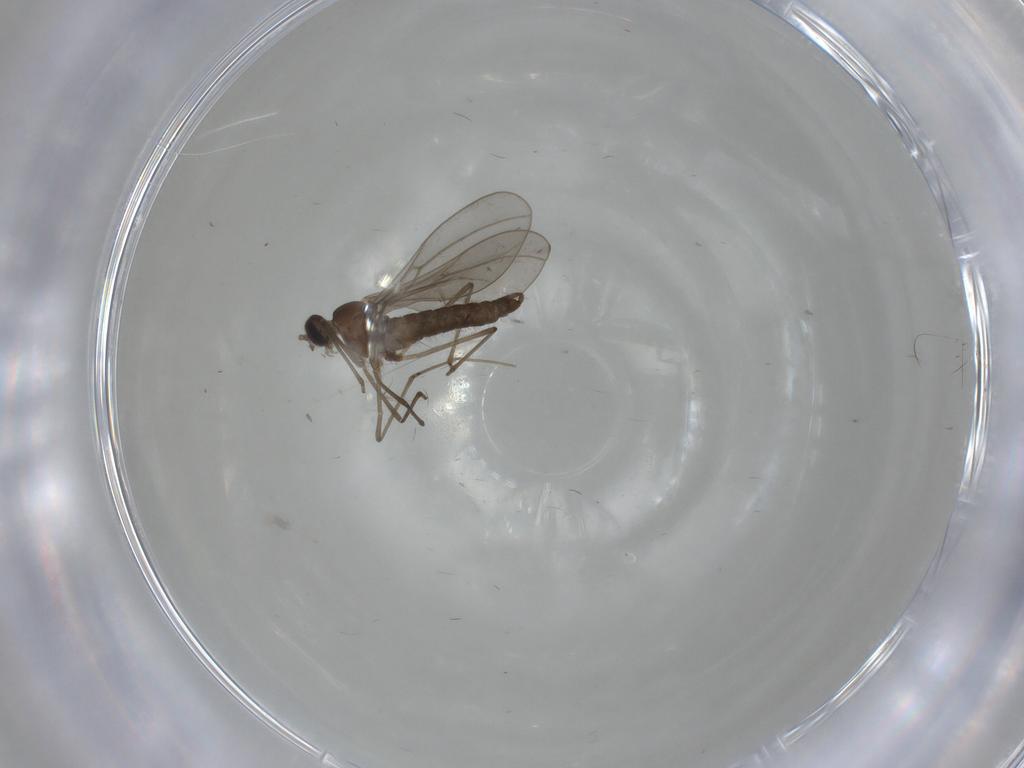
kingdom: Animalia
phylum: Arthropoda
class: Insecta
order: Diptera
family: Cecidomyiidae
